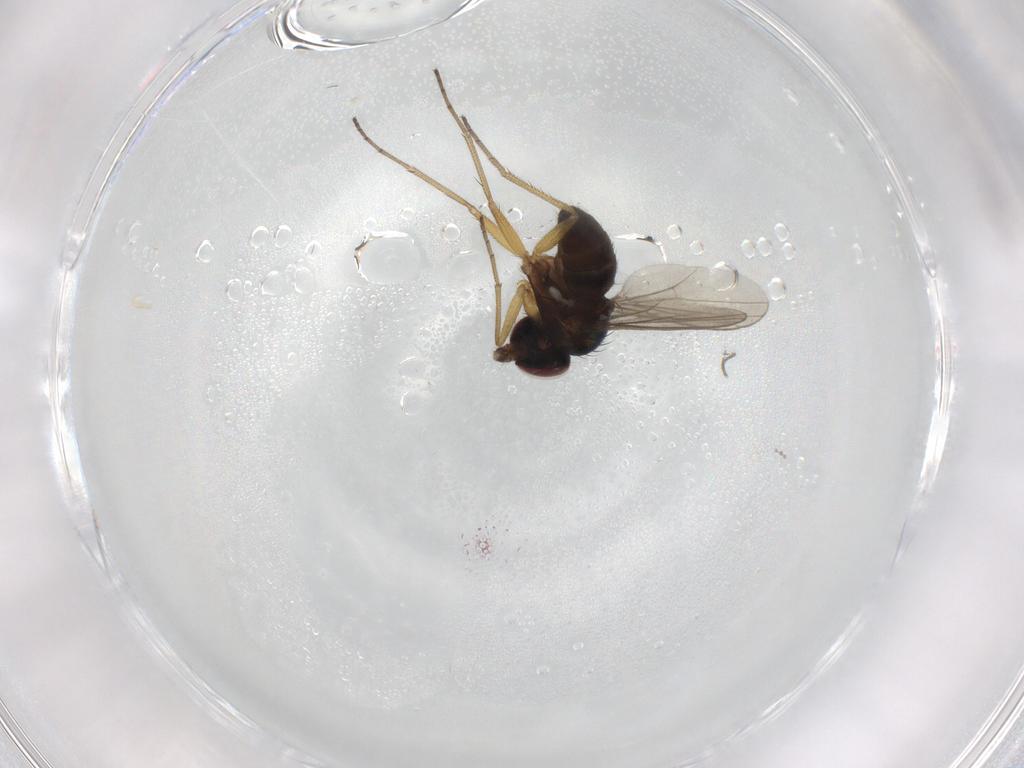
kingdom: Animalia
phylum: Arthropoda
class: Insecta
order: Diptera
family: Dolichopodidae
